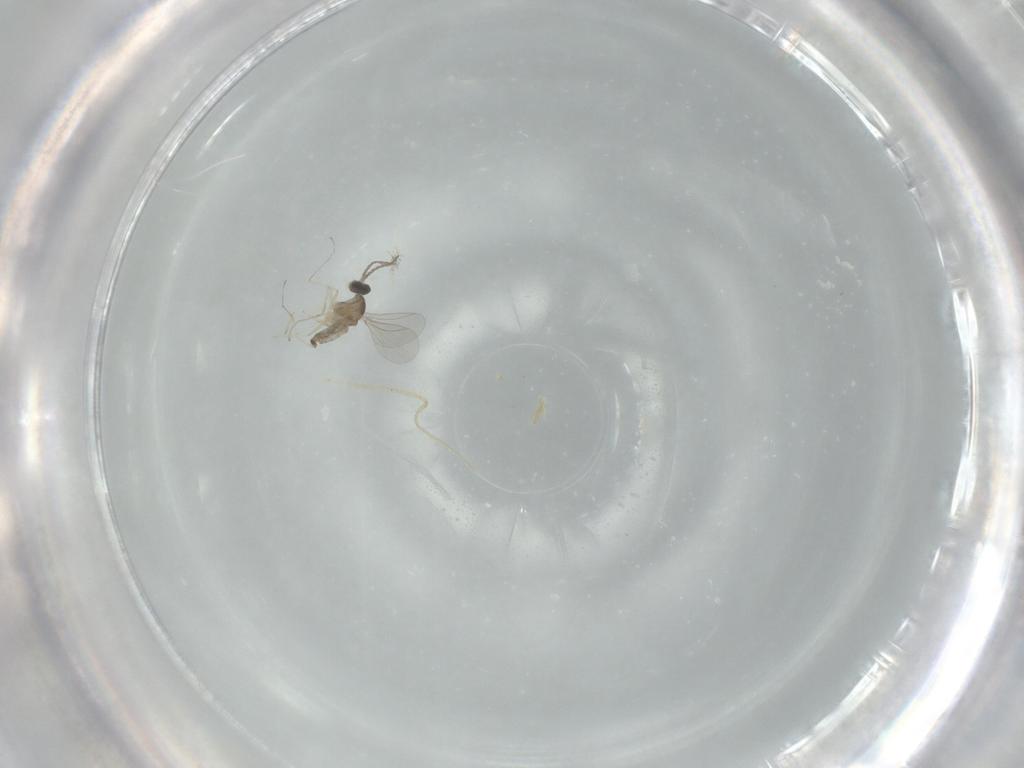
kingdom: Animalia
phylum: Arthropoda
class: Insecta
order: Diptera
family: Cecidomyiidae
